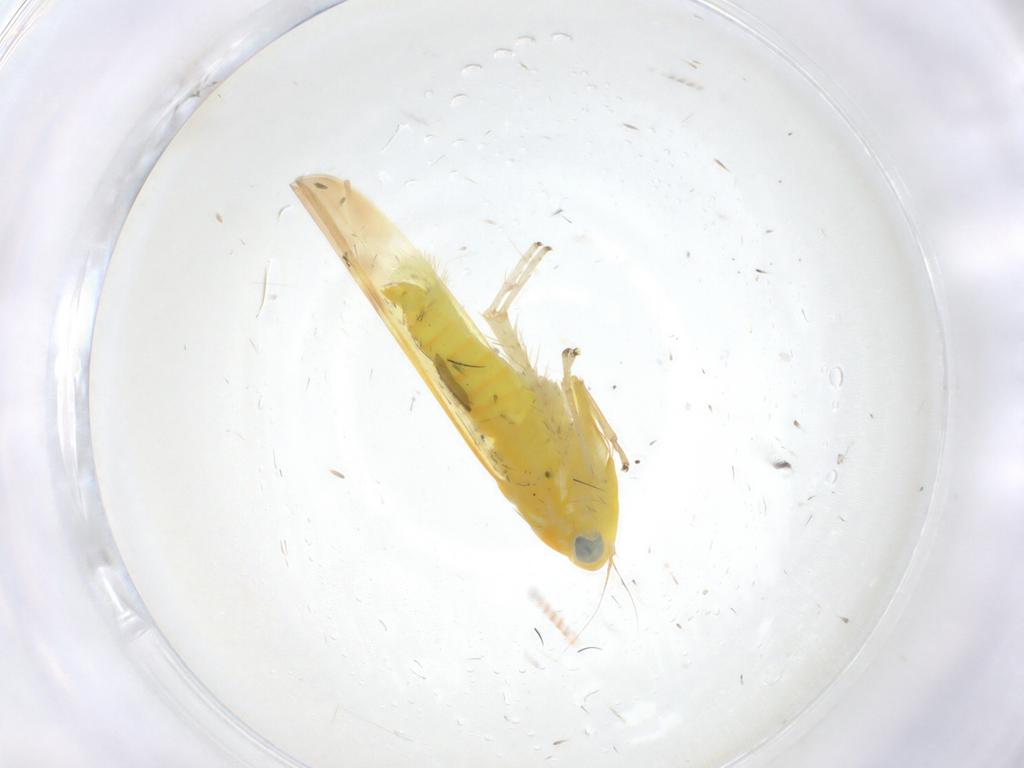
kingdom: Animalia
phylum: Arthropoda
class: Insecta
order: Hemiptera
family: Cicadellidae
